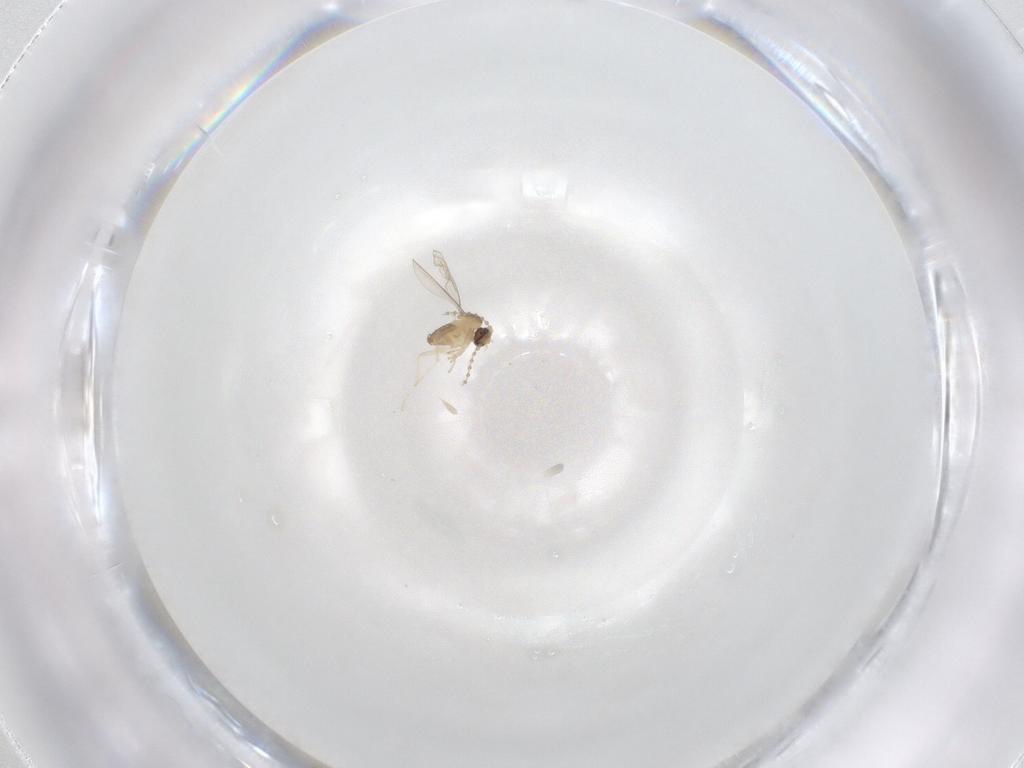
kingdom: Animalia
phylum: Arthropoda
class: Insecta
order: Diptera
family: Cecidomyiidae
